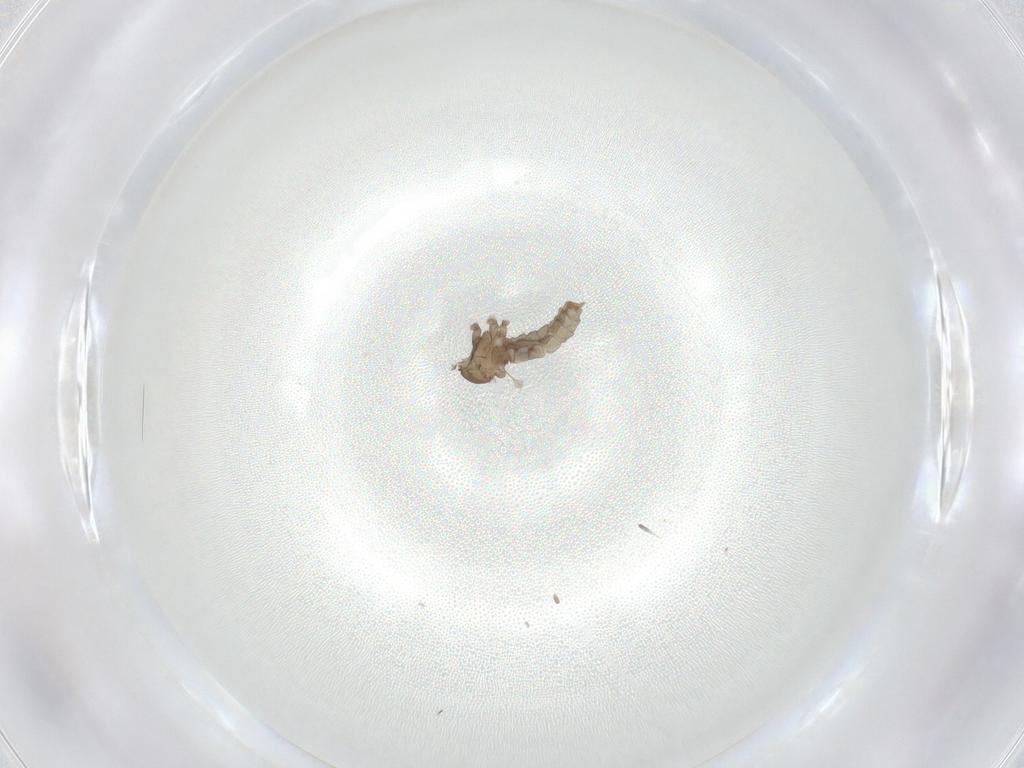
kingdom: Animalia
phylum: Arthropoda
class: Insecta
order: Diptera
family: Cecidomyiidae
